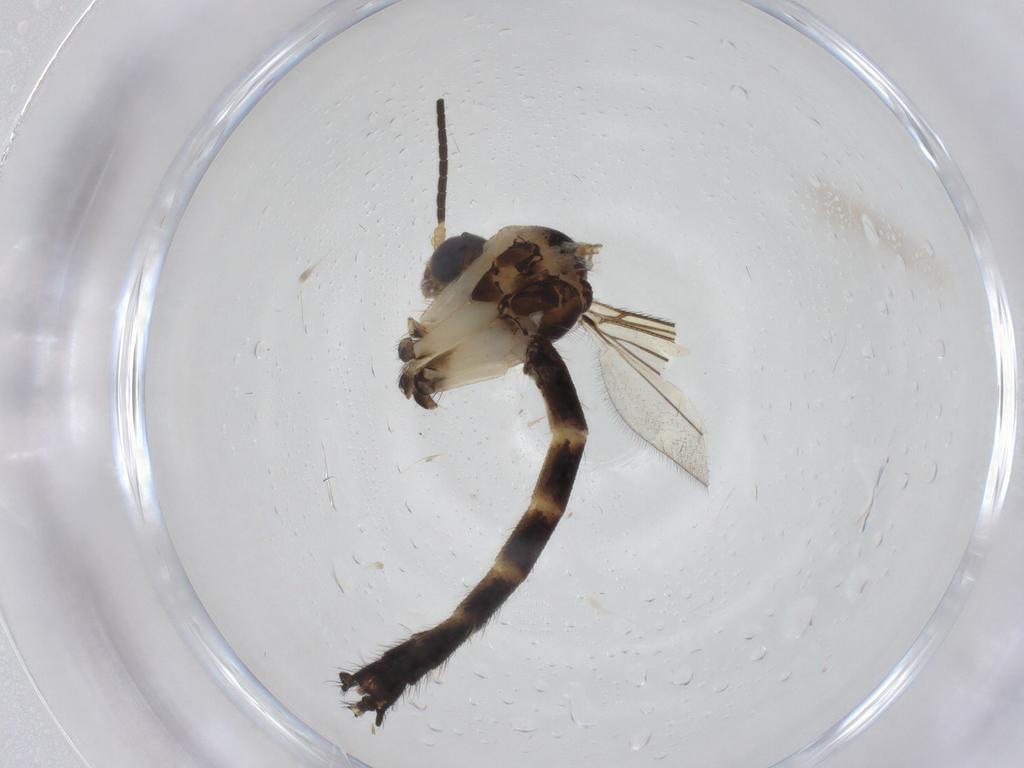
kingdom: Animalia
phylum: Arthropoda
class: Insecta
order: Diptera
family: Mycetophilidae
